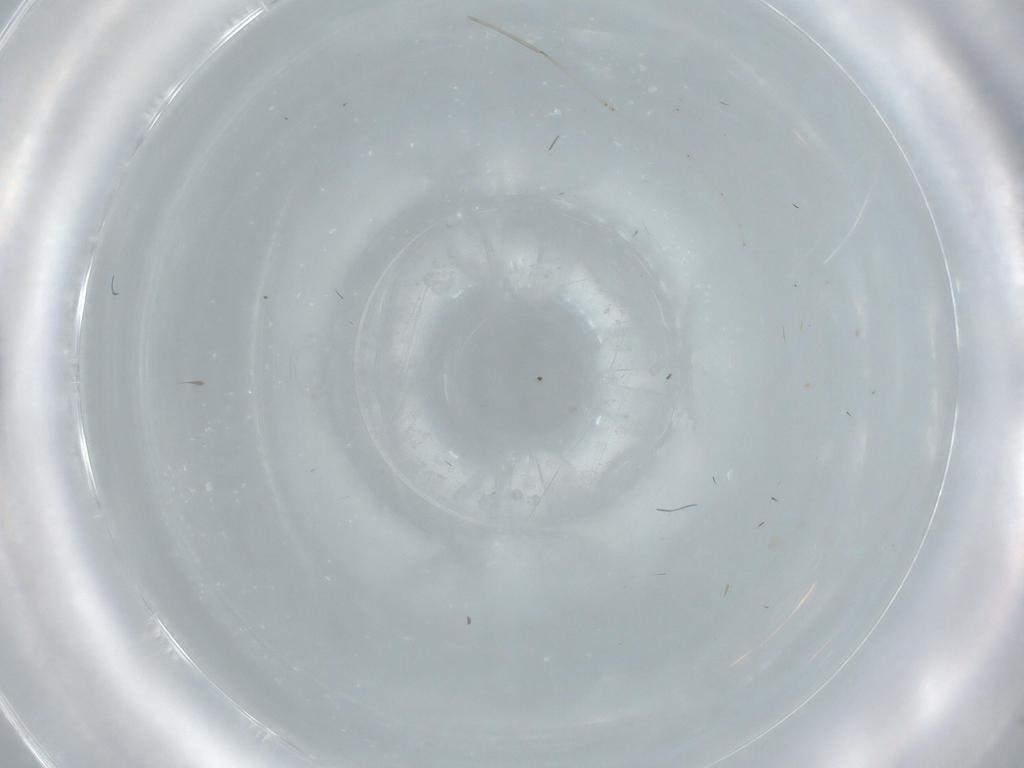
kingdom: Animalia
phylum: Arthropoda
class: Insecta
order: Diptera
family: Cecidomyiidae
